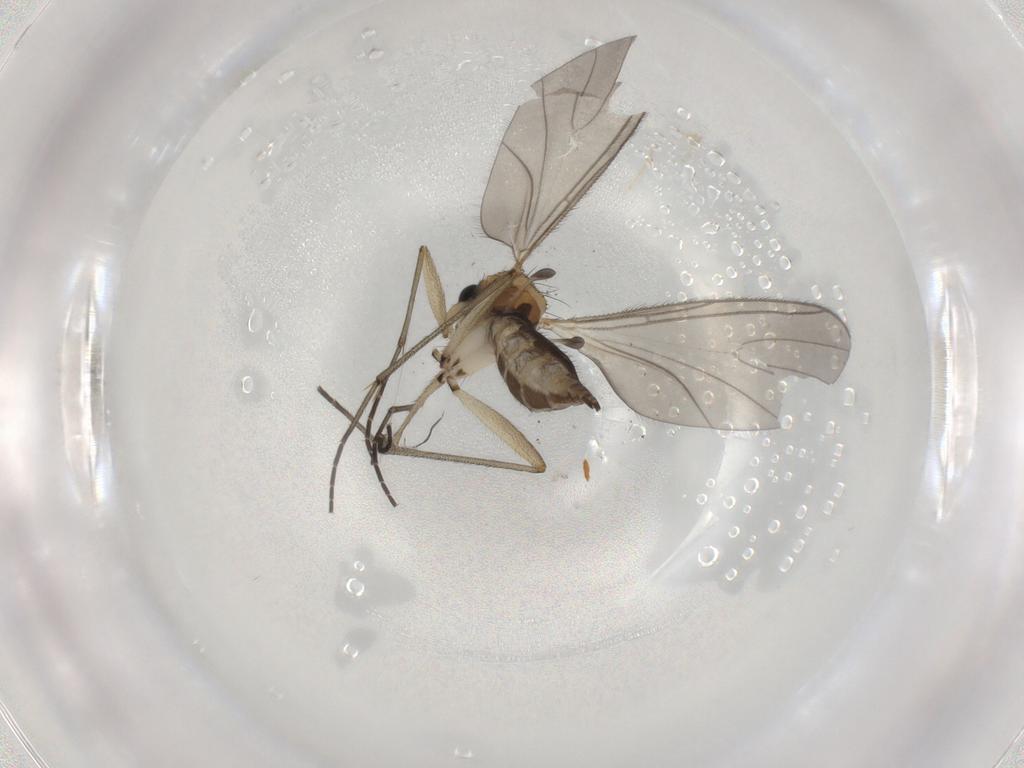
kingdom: Animalia
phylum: Arthropoda
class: Insecta
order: Diptera
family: Sciaridae
